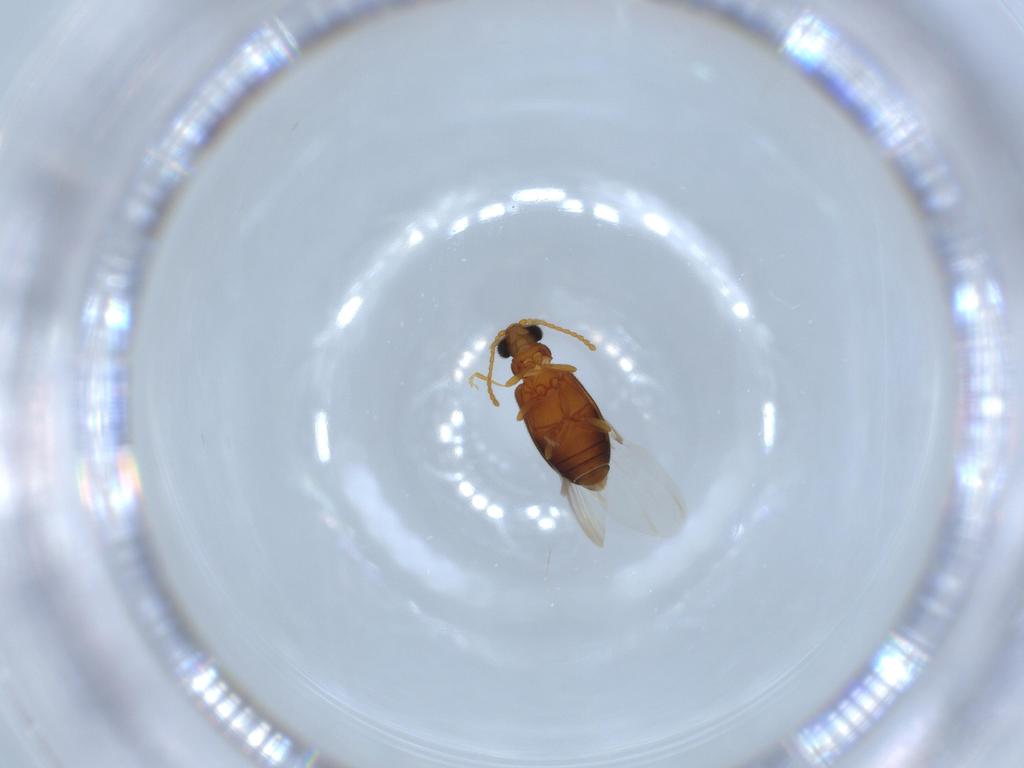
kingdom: Animalia
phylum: Arthropoda
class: Insecta
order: Coleoptera
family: Aderidae
